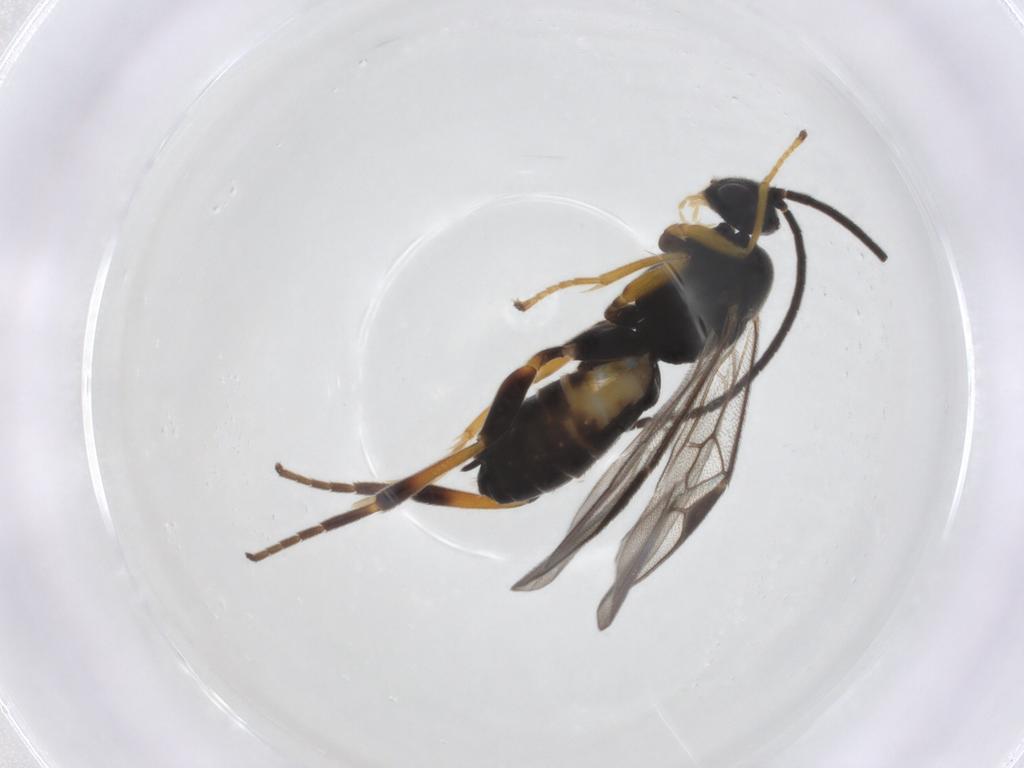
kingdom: Animalia
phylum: Arthropoda
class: Insecta
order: Hymenoptera
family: Braconidae
